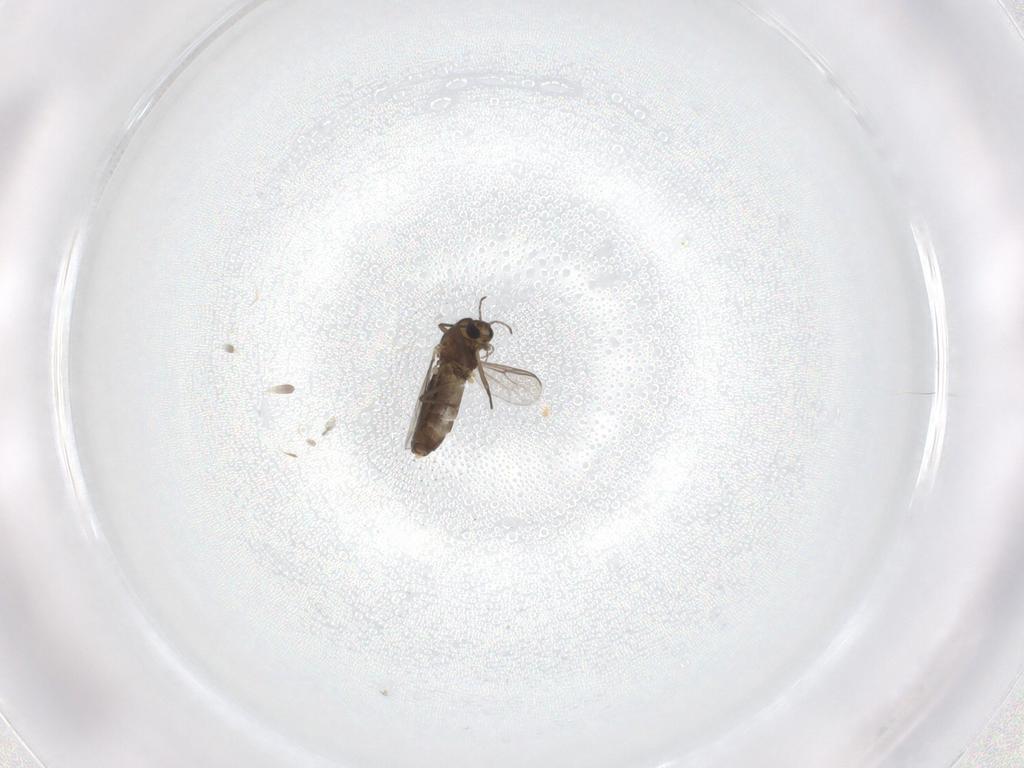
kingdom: Animalia
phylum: Arthropoda
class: Insecta
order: Diptera
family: Chironomidae
